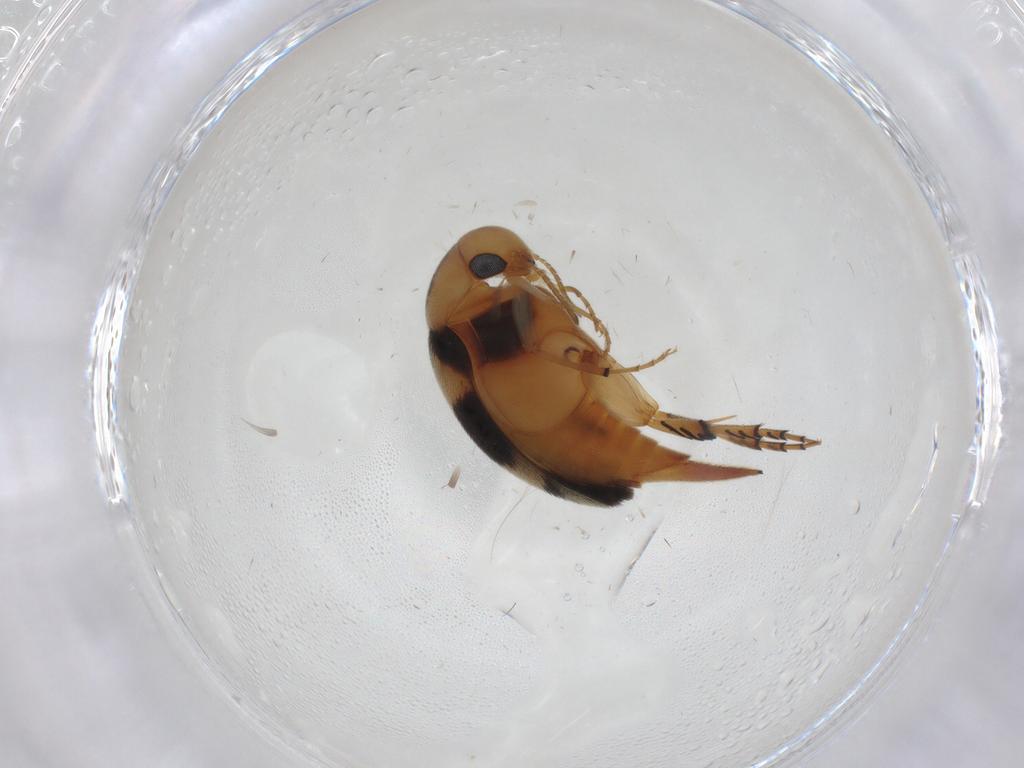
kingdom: Animalia
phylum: Arthropoda
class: Insecta
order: Coleoptera
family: Mordellidae
